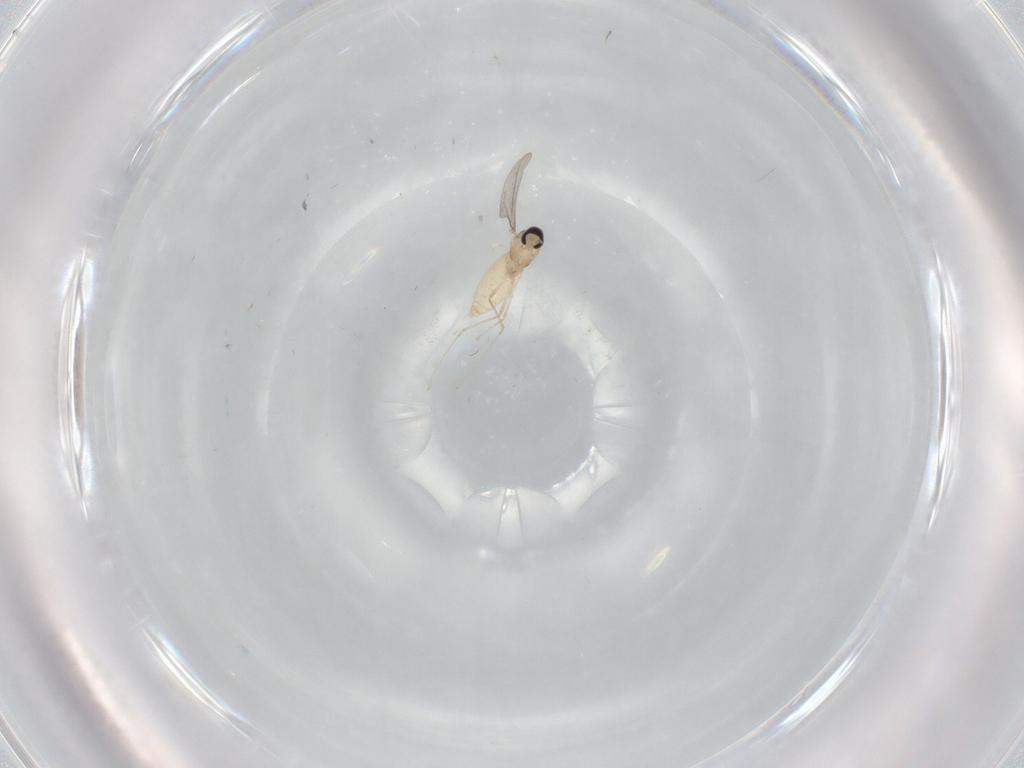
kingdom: Animalia
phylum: Arthropoda
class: Insecta
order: Diptera
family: Cecidomyiidae
